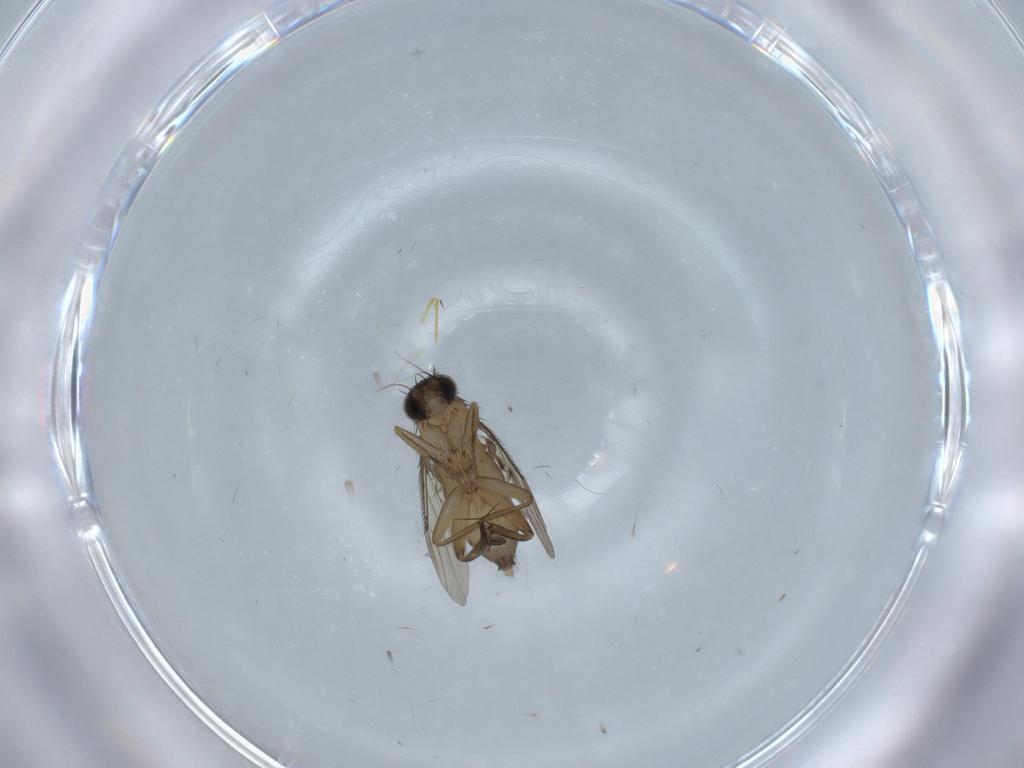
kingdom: Animalia
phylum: Arthropoda
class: Insecta
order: Diptera
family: Phoridae
